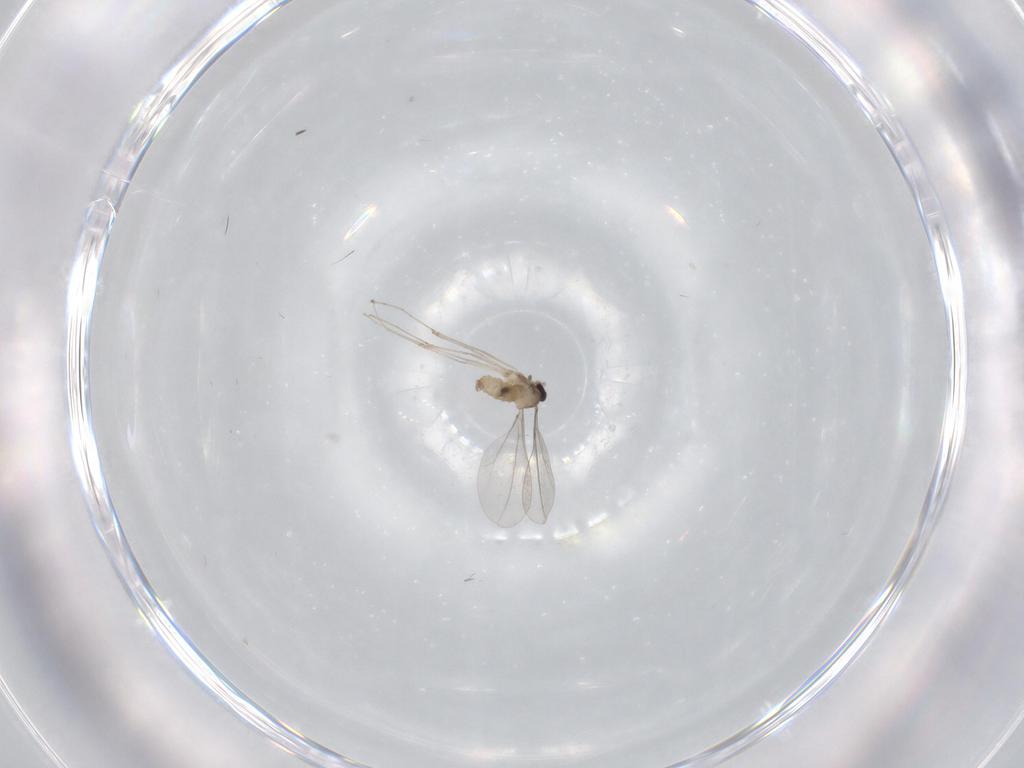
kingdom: Animalia
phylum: Arthropoda
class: Insecta
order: Diptera
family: Cecidomyiidae
